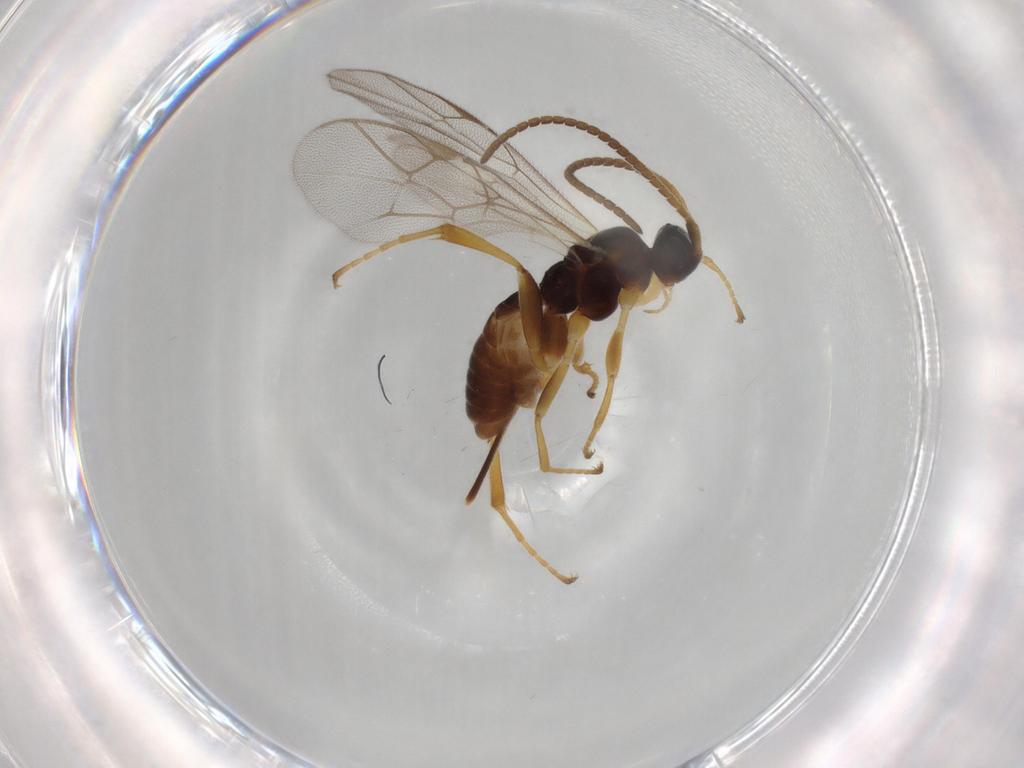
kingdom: Animalia
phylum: Arthropoda
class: Insecta
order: Hymenoptera
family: Ichneumonidae
